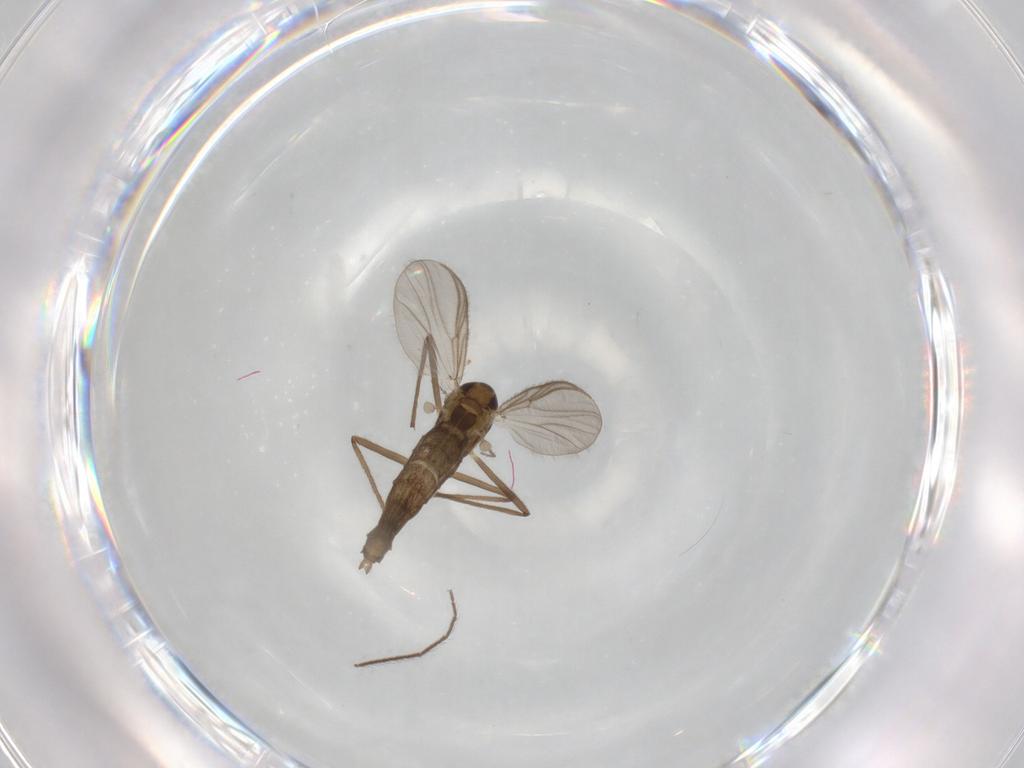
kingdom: Animalia
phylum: Arthropoda
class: Insecta
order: Diptera
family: Chironomidae
